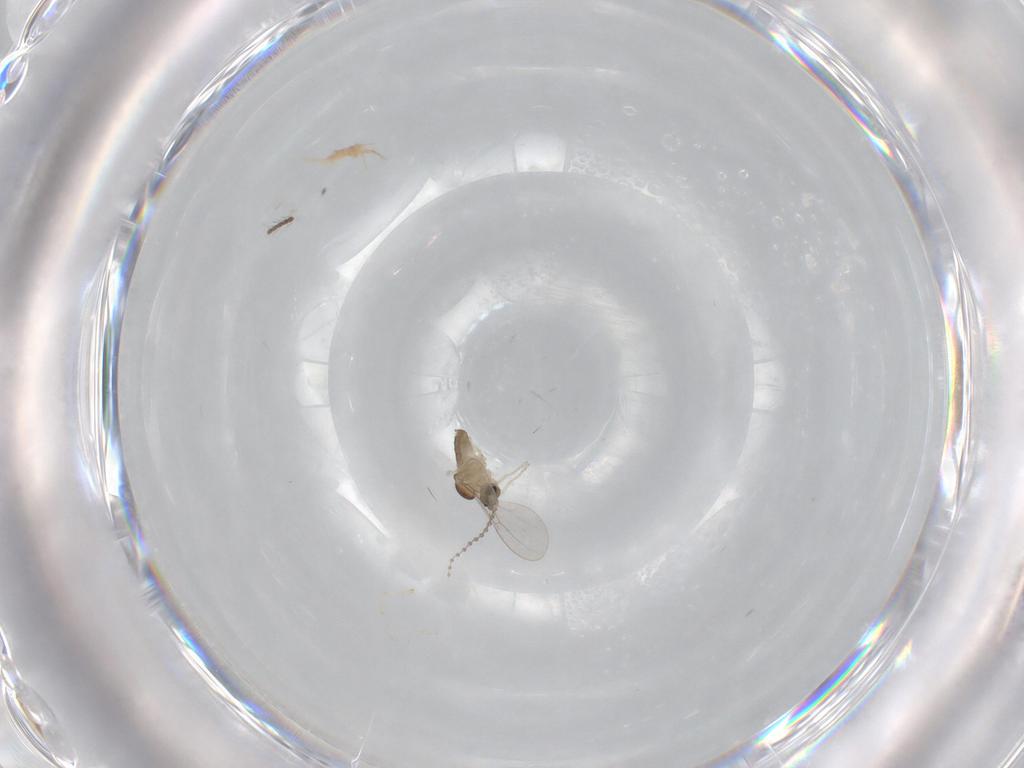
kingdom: Animalia
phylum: Arthropoda
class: Insecta
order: Diptera
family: Cecidomyiidae
